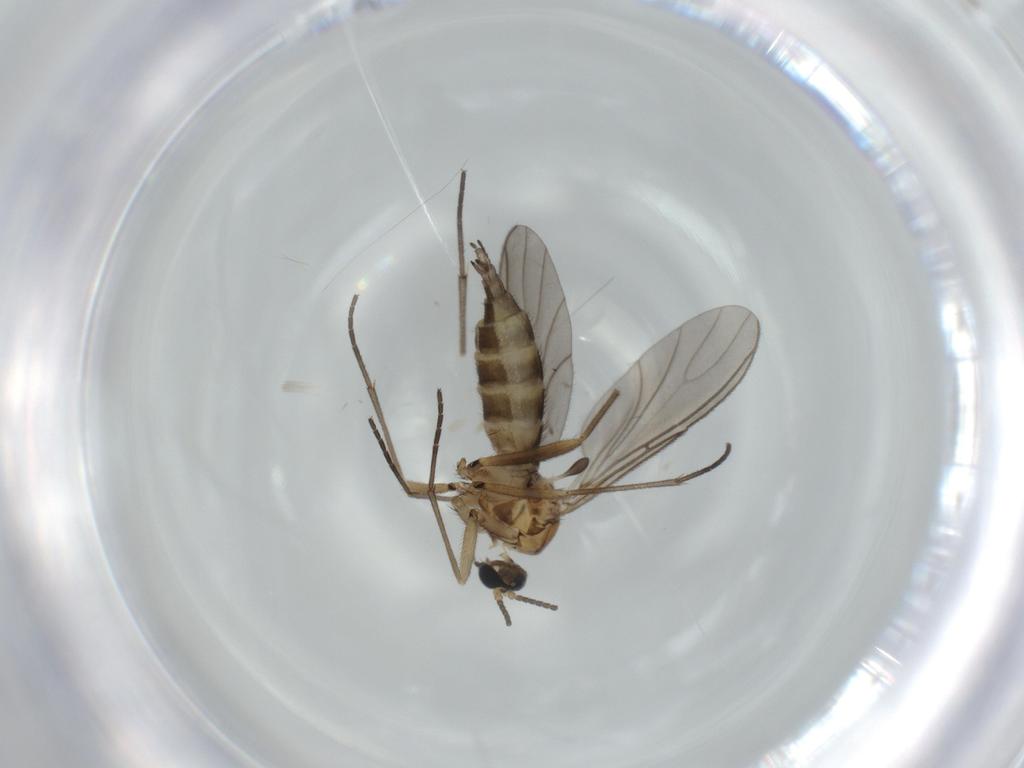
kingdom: Animalia
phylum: Arthropoda
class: Insecta
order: Diptera
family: Sciaridae
